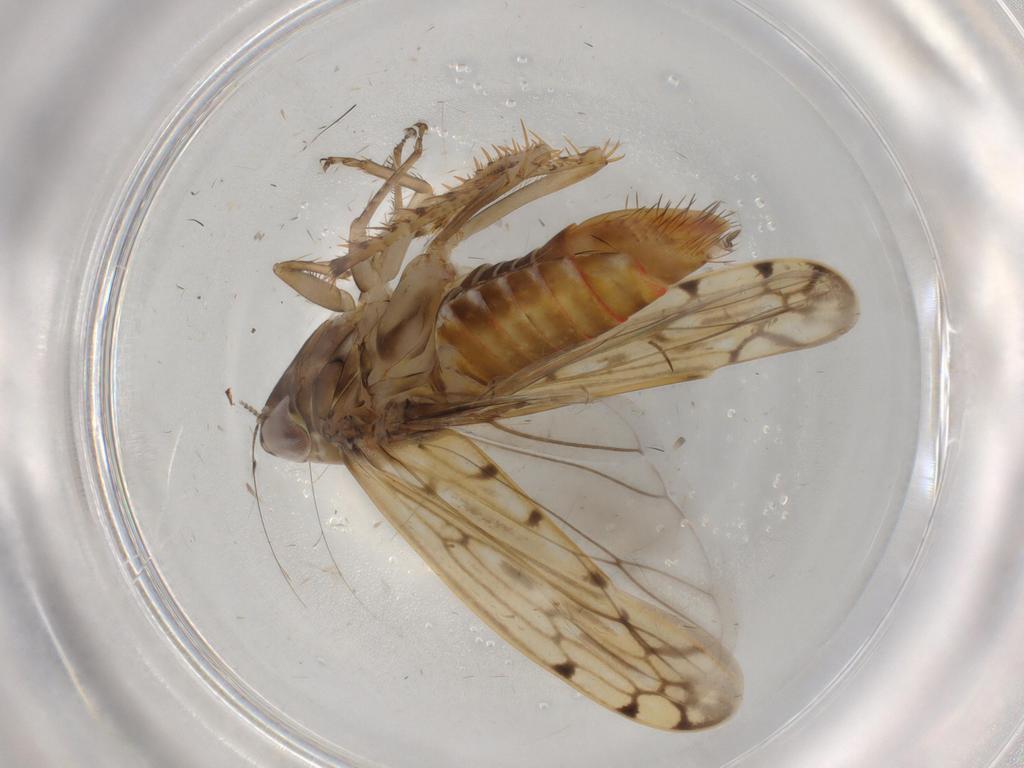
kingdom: Animalia
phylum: Arthropoda
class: Insecta
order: Hemiptera
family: Cicadellidae
